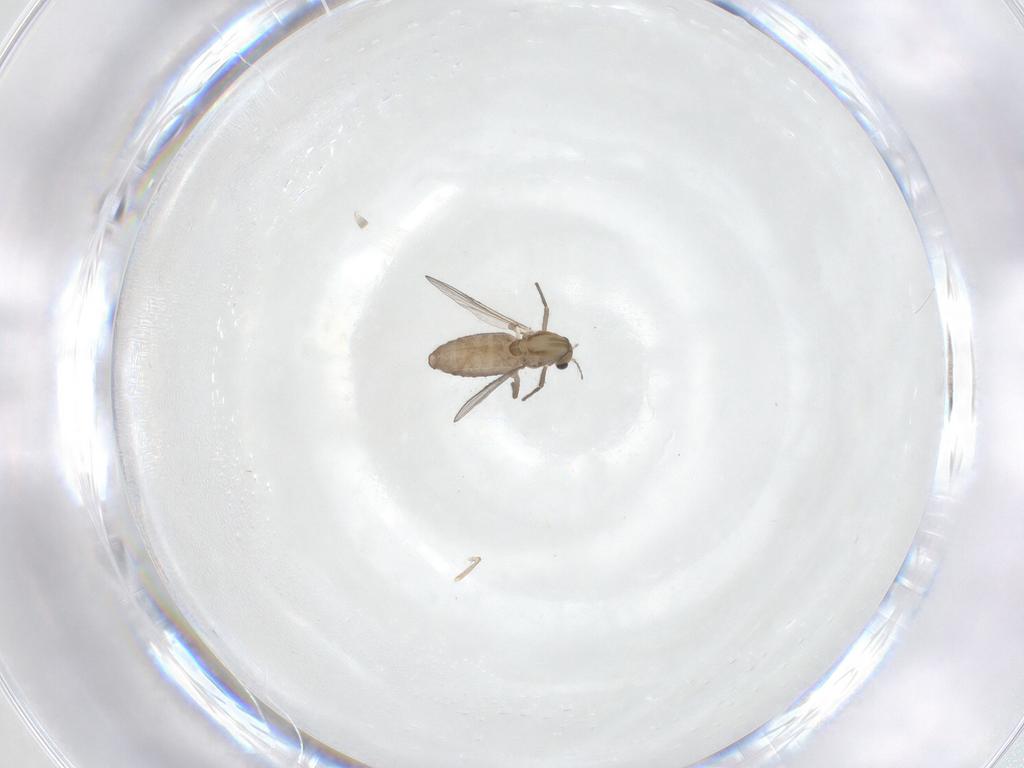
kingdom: Animalia
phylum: Arthropoda
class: Insecta
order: Diptera
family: Chironomidae
